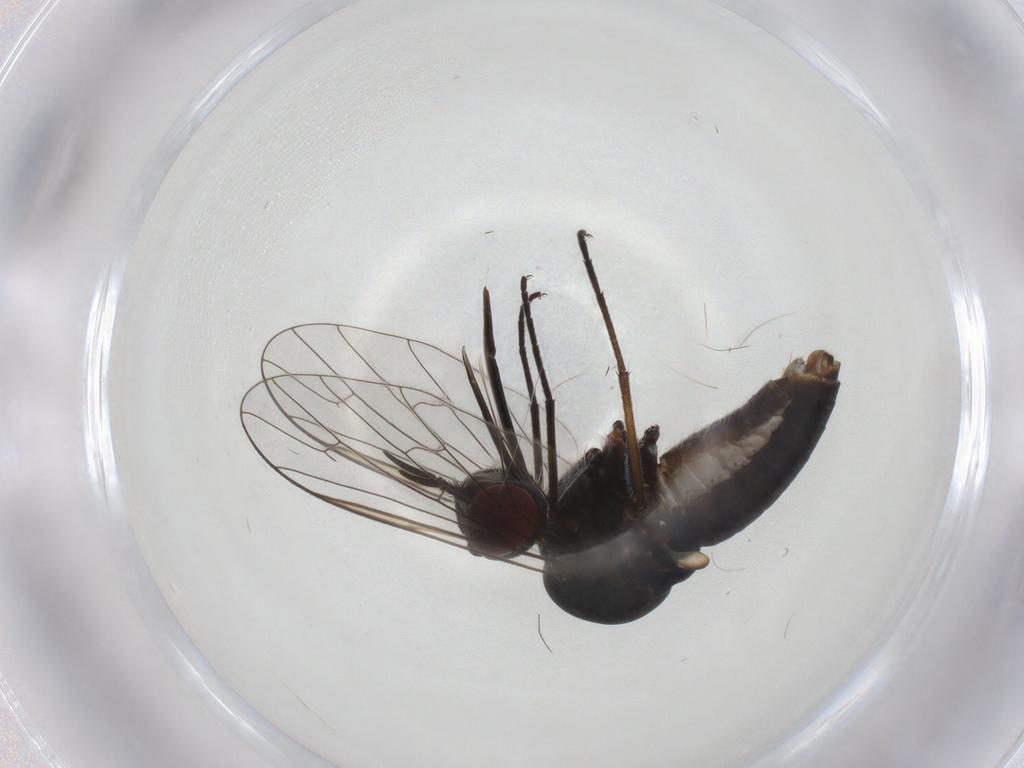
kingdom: Animalia
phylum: Arthropoda
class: Insecta
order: Diptera
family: Bombyliidae
